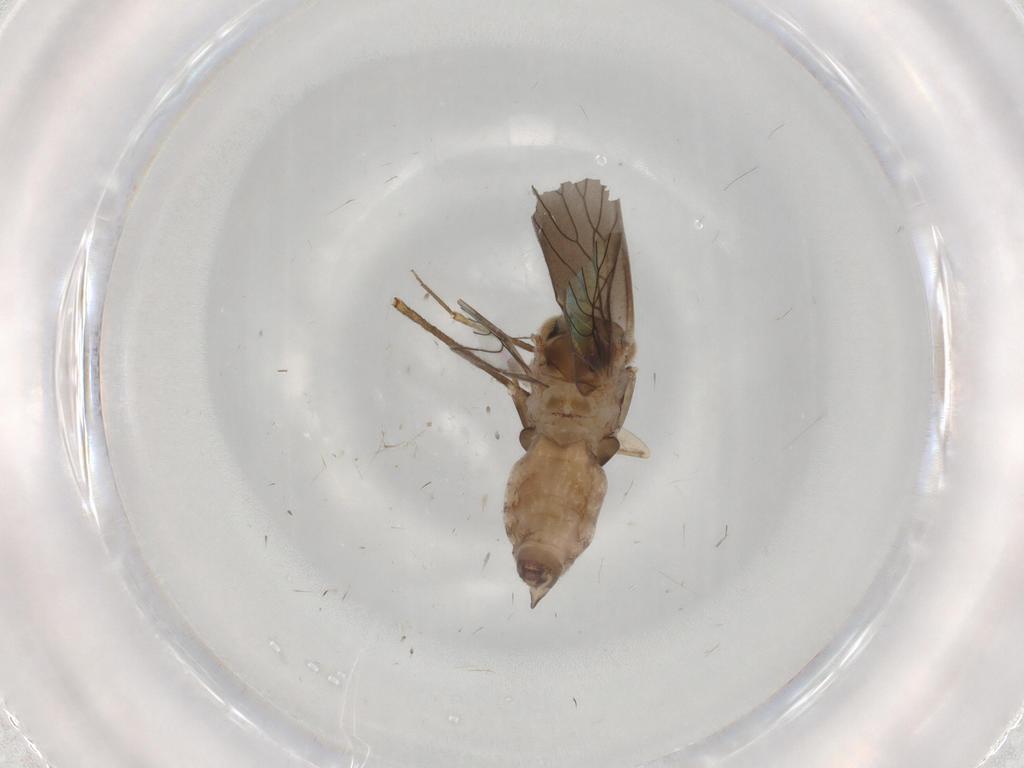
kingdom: Animalia
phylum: Arthropoda
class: Insecta
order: Psocodea
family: Lepidopsocidae
